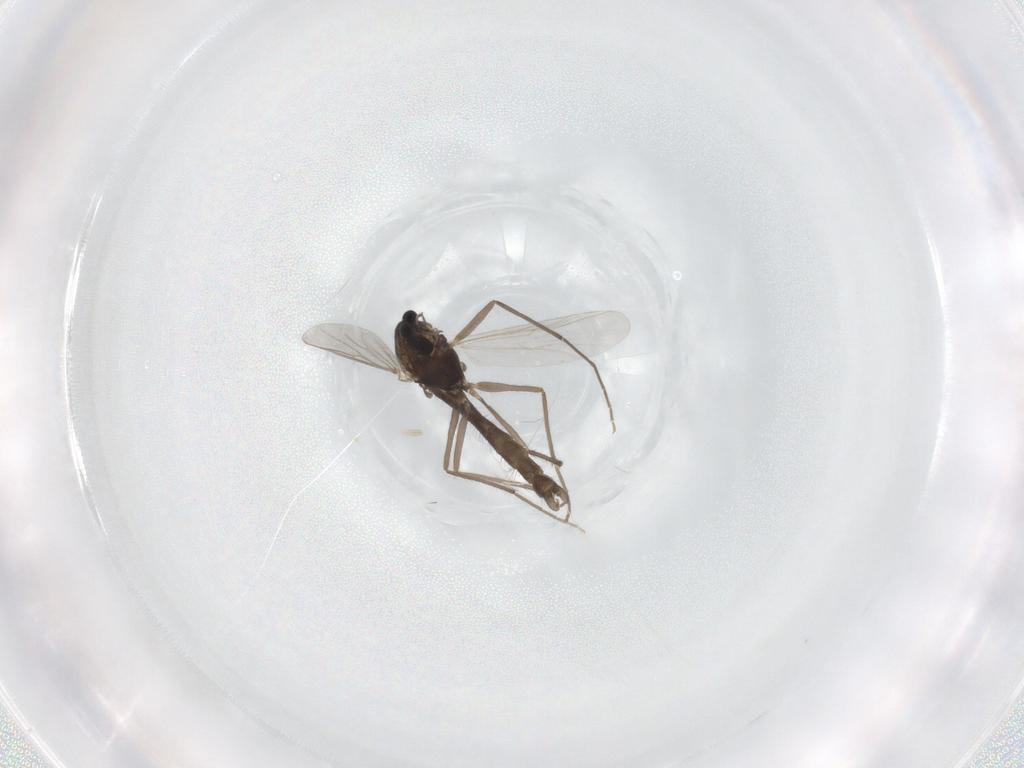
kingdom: Animalia
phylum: Arthropoda
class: Insecta
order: Diptera
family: Chironomidae
